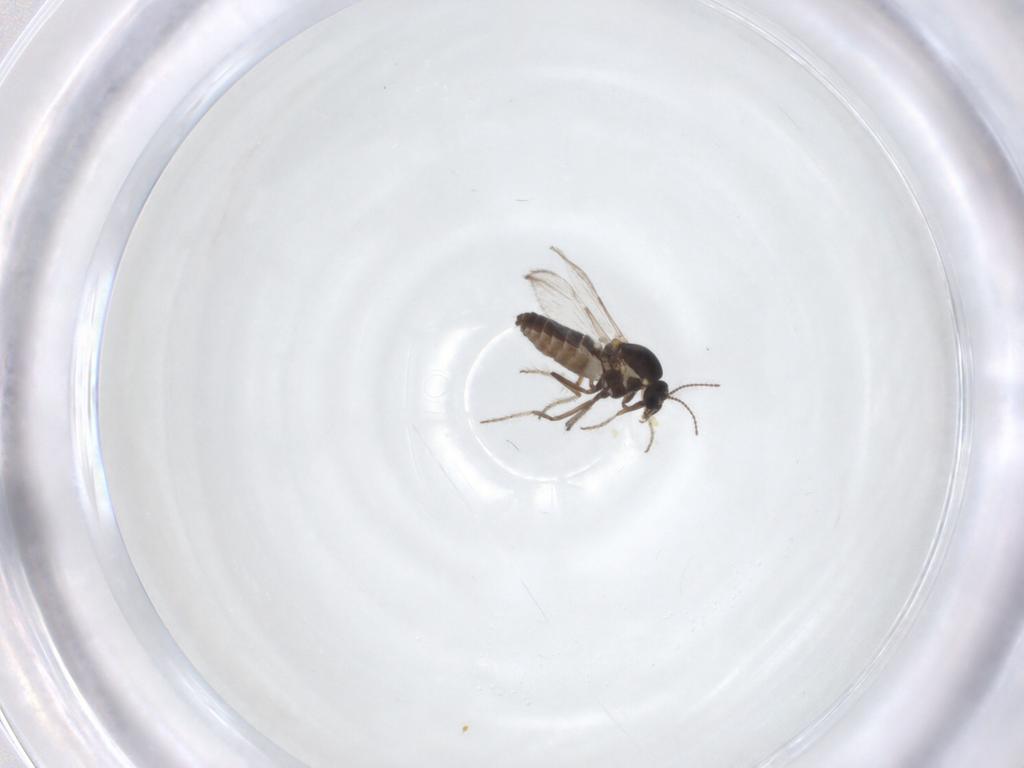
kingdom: Animalia
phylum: Arthropoda
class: Insecta
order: Diptera
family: Ceratopogonidae
